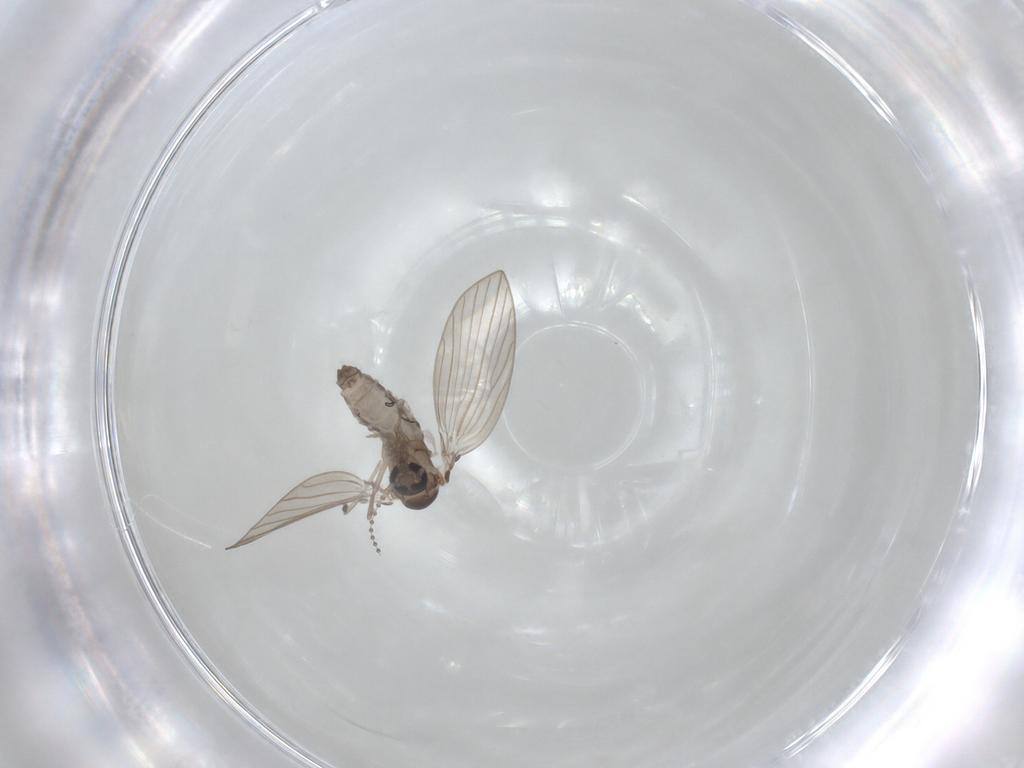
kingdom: Animalia
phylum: Arthropoda
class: Insecta
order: Diptera
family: Psychodidae
